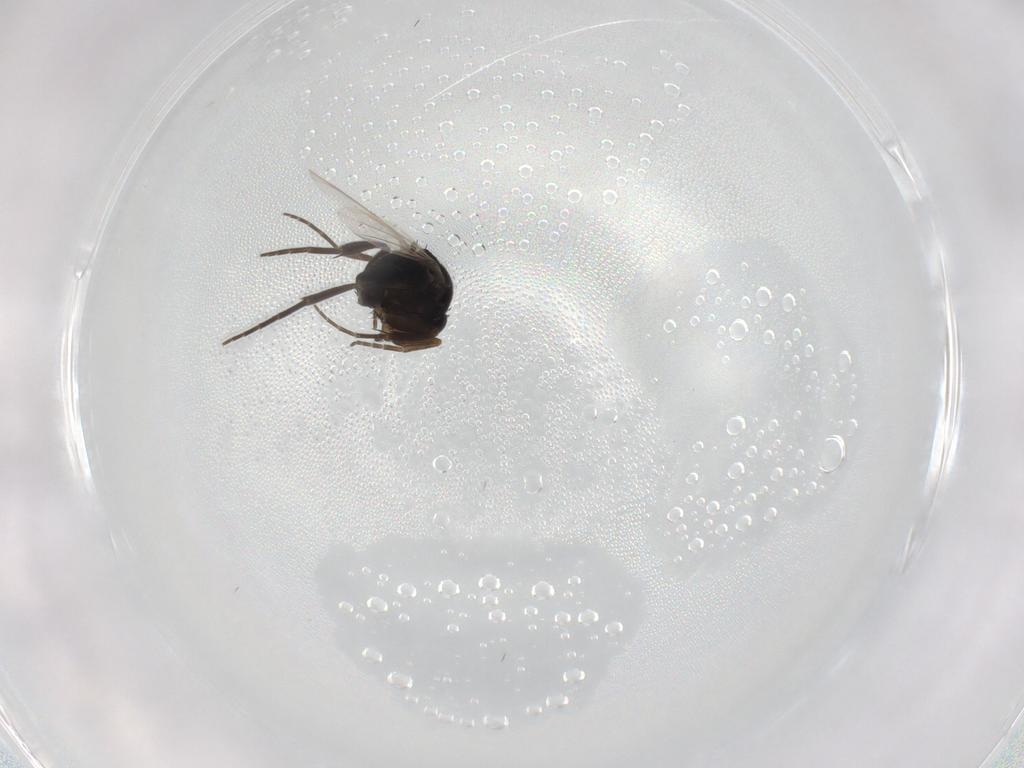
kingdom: Animalia
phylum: Arthropoda
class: Insecta
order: Diptera
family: Phoridae
